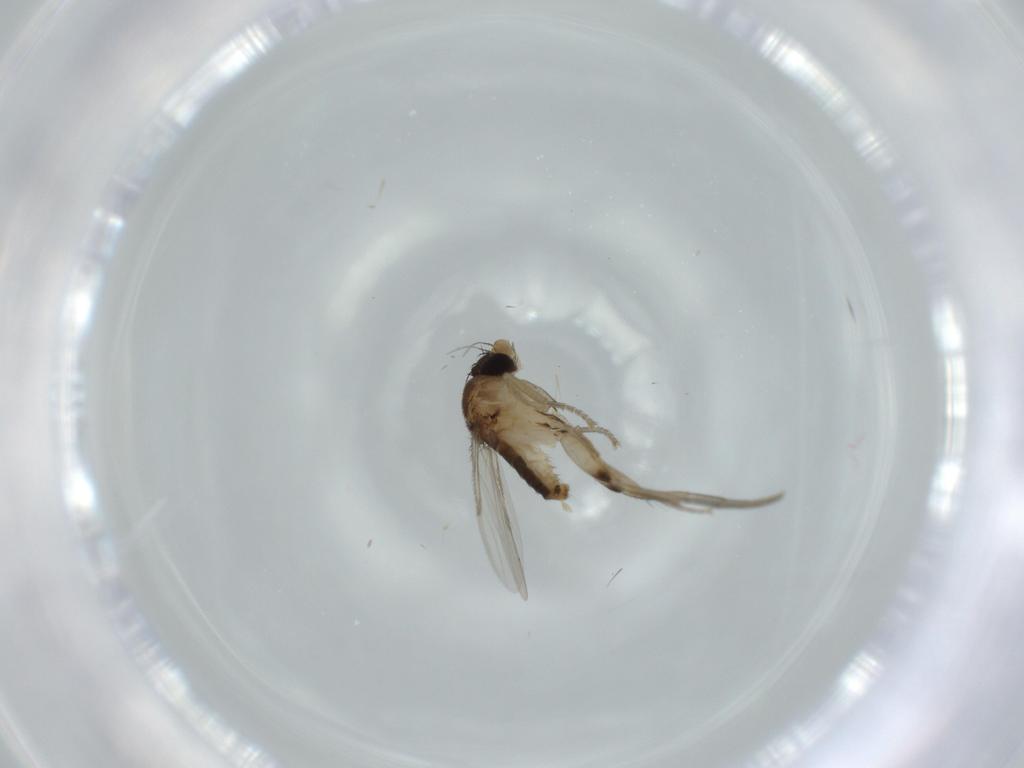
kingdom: Animalia
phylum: Arthropoda
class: Insecta
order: Diptera
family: Phoridae
